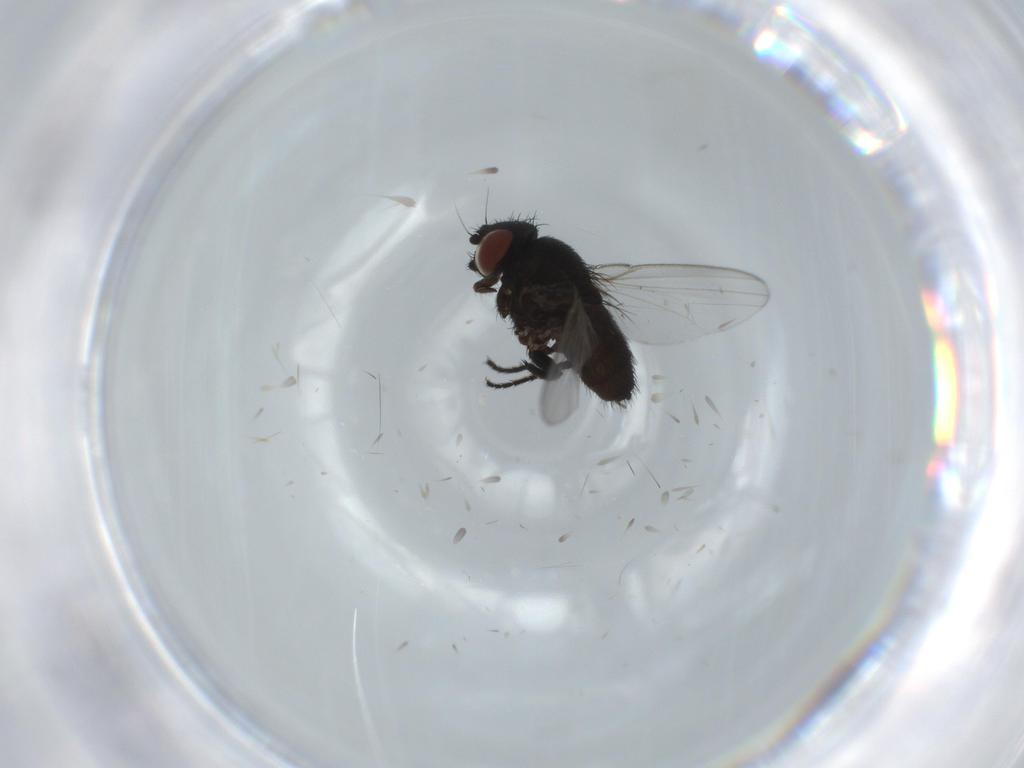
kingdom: Animalia
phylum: Arthropoda
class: Insecta
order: Diptera
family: Milichiidae
